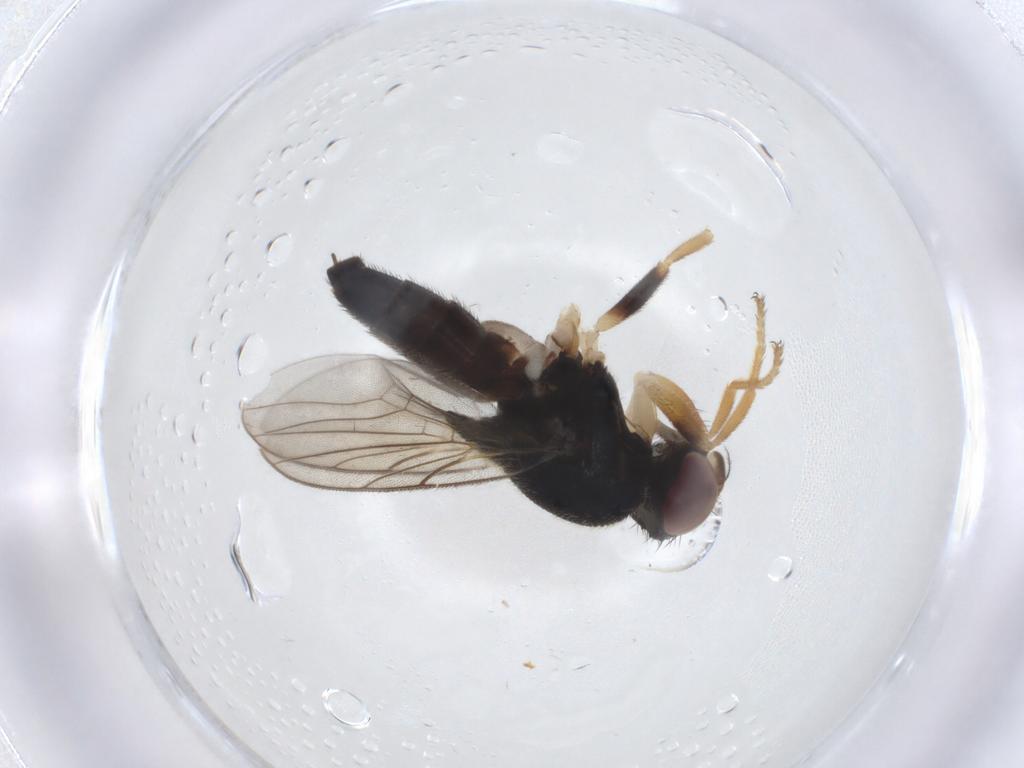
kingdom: Animalia
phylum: Arthropoda
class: Insecta
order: Diptera
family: Chloropidae
